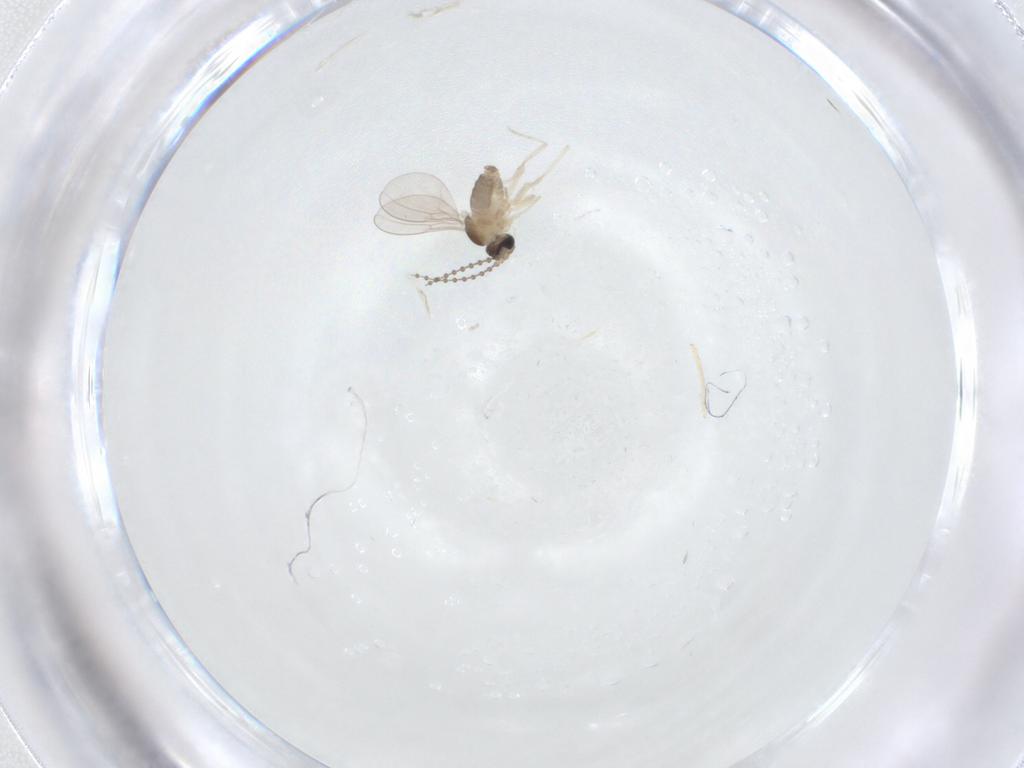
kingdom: Animalia
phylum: Arthropoda
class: Insecta
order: Diptera
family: Cecidomyiidae
